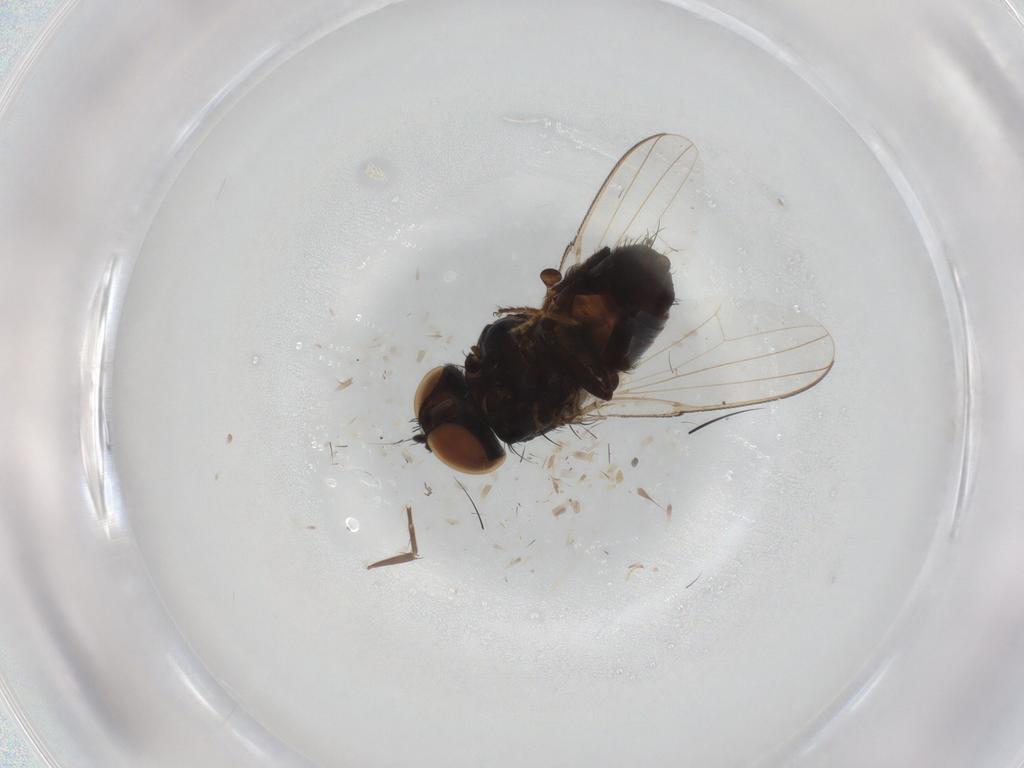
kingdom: Animalia
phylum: Arthropoda
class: Insecta
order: Diptera
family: Scatopsidae
